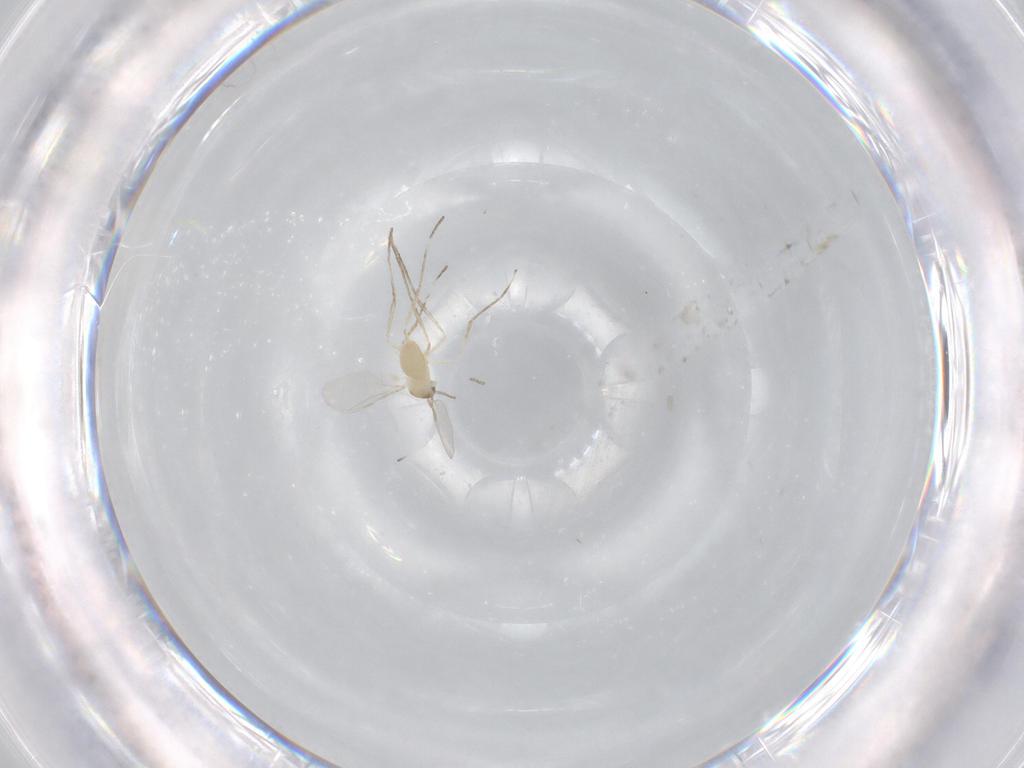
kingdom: Animalia
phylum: Arthropoda
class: Insecta
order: Diptera
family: Cecidomyiidae
